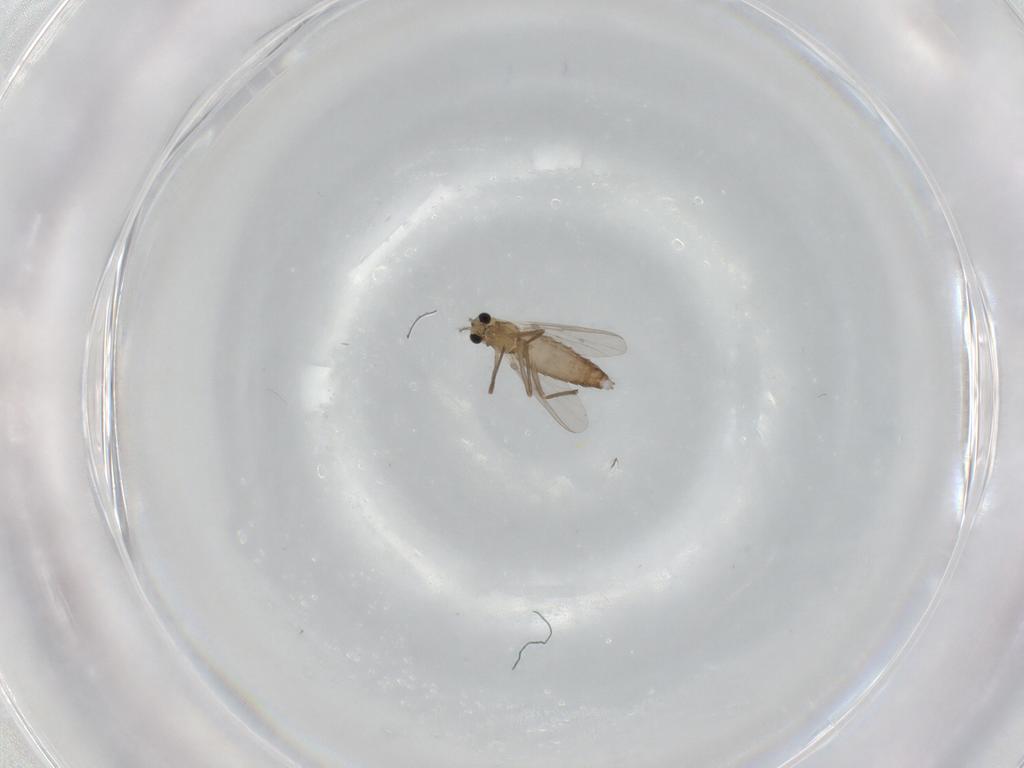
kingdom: Animalia
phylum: Arthropoda
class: Insecta
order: Diptera
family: Chironomidae
